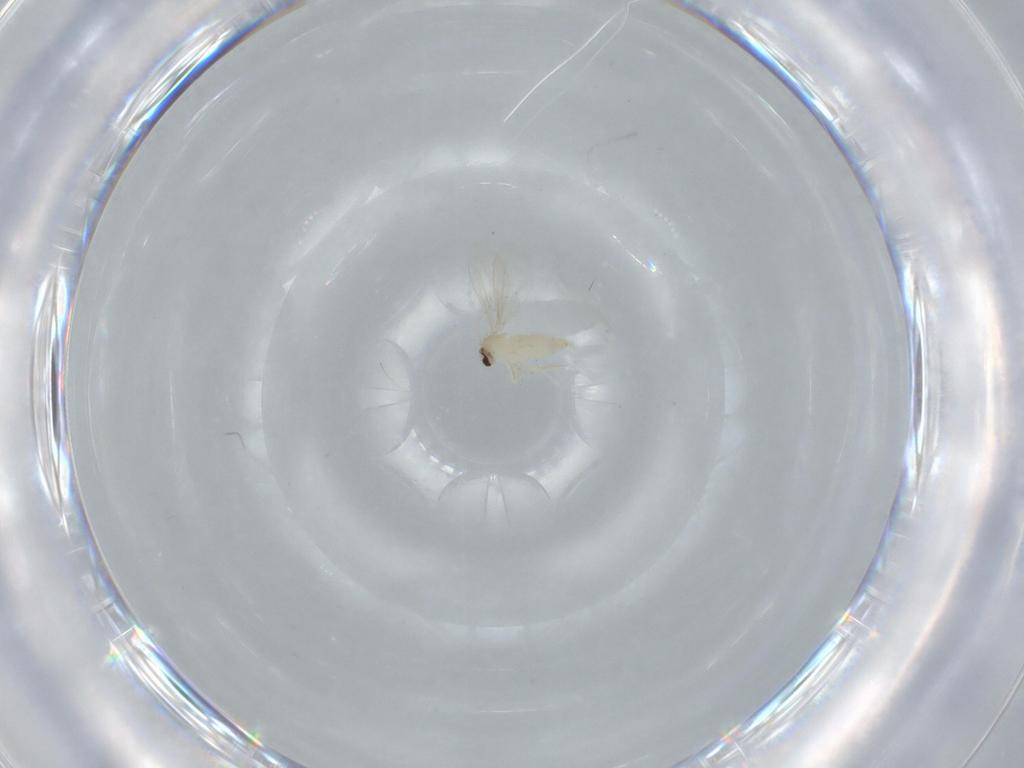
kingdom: Animalia
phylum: Arthropoda
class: Insecta
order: Diptera
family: Cecidomyiidae
